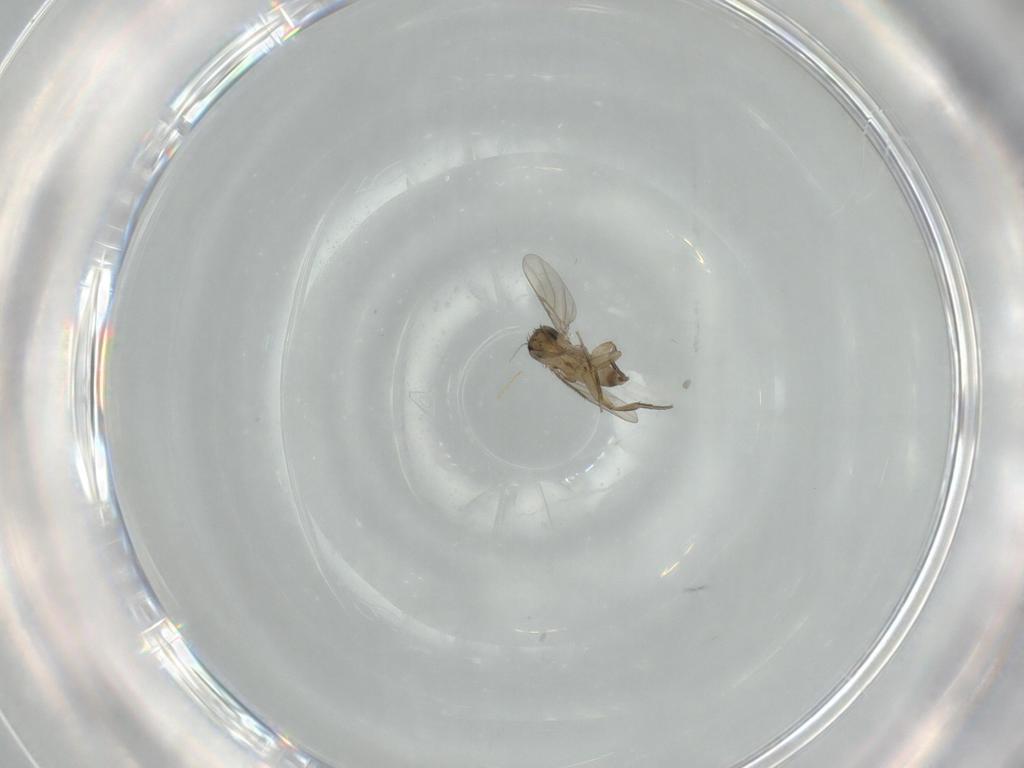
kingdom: Animalia
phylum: Arthropoda
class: Insecta
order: Diptera
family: Phoridae
